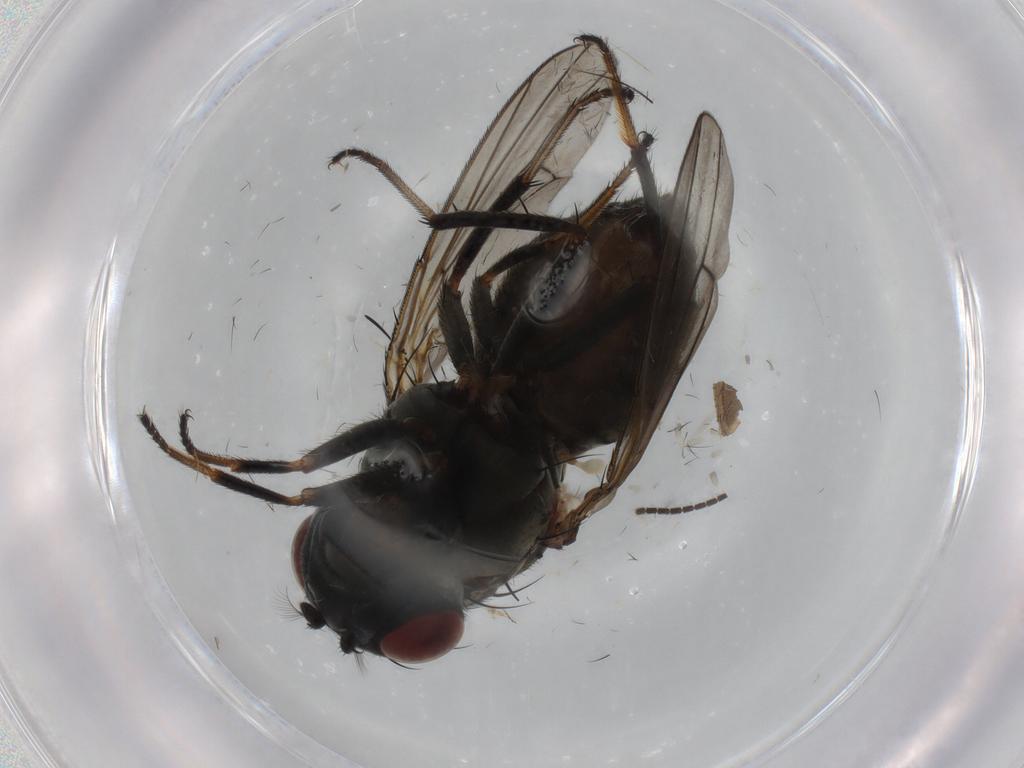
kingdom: Animalia
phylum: Arthropoda
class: Insecta
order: Diptera
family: Ephydridae
